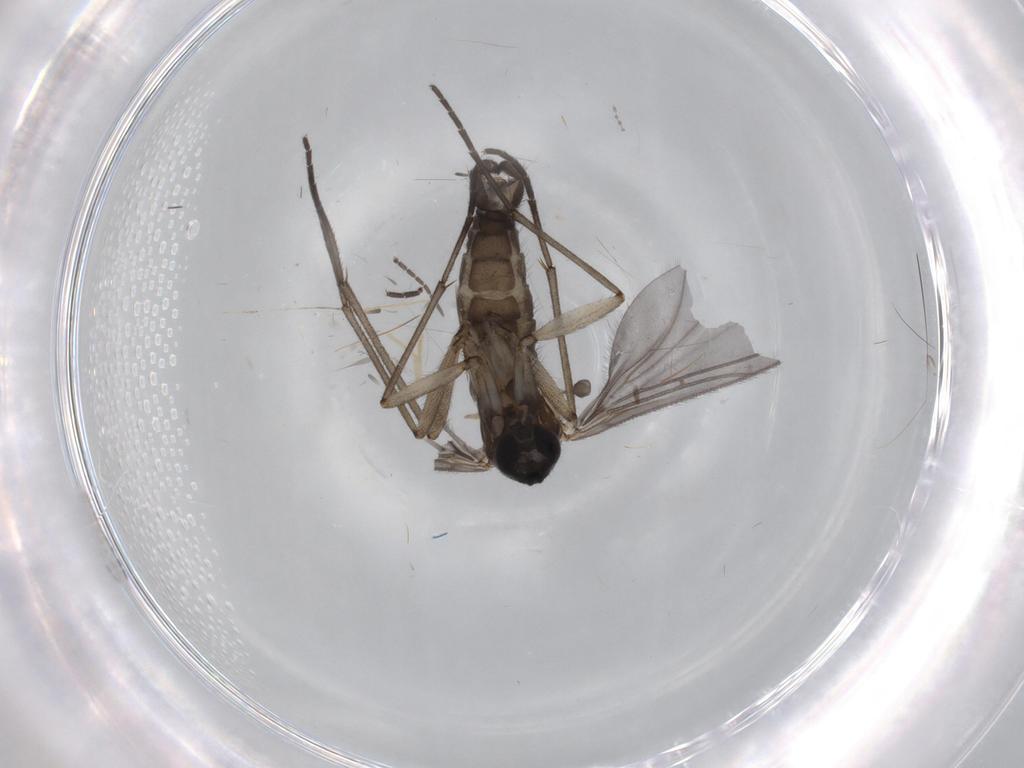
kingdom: Animalia
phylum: Arthropoda
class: Insecta
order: Diptera
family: Sciaridae
